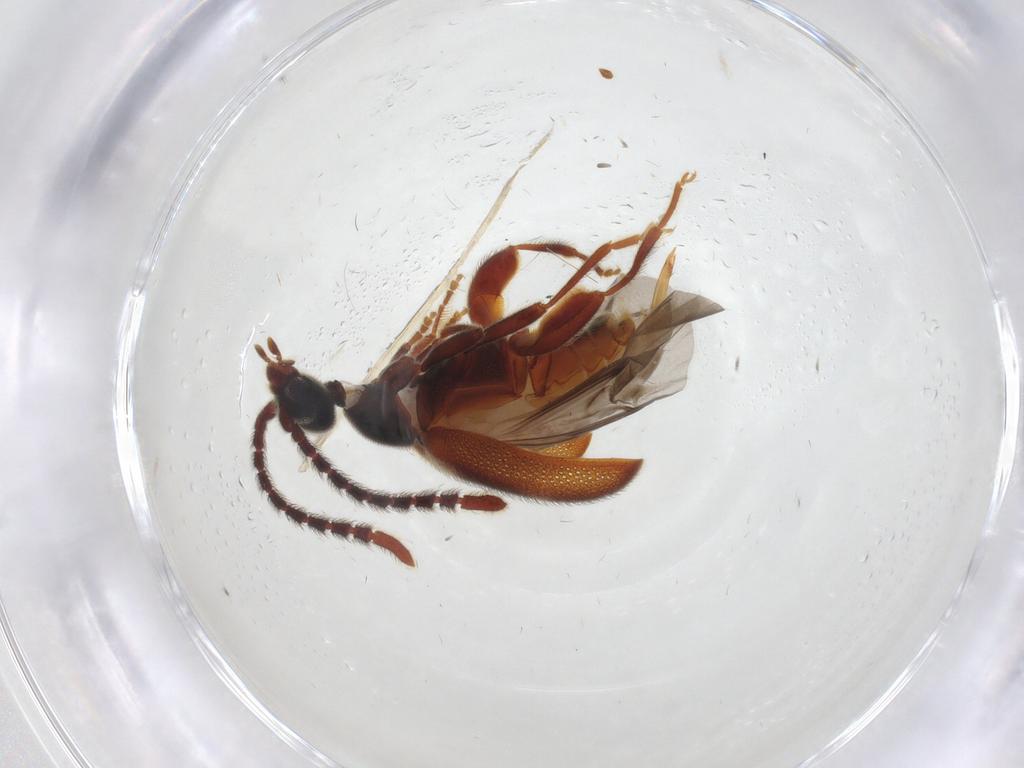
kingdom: Animalia
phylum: Arthropoda
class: Insecta
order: Coleoptera
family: Aderidae
